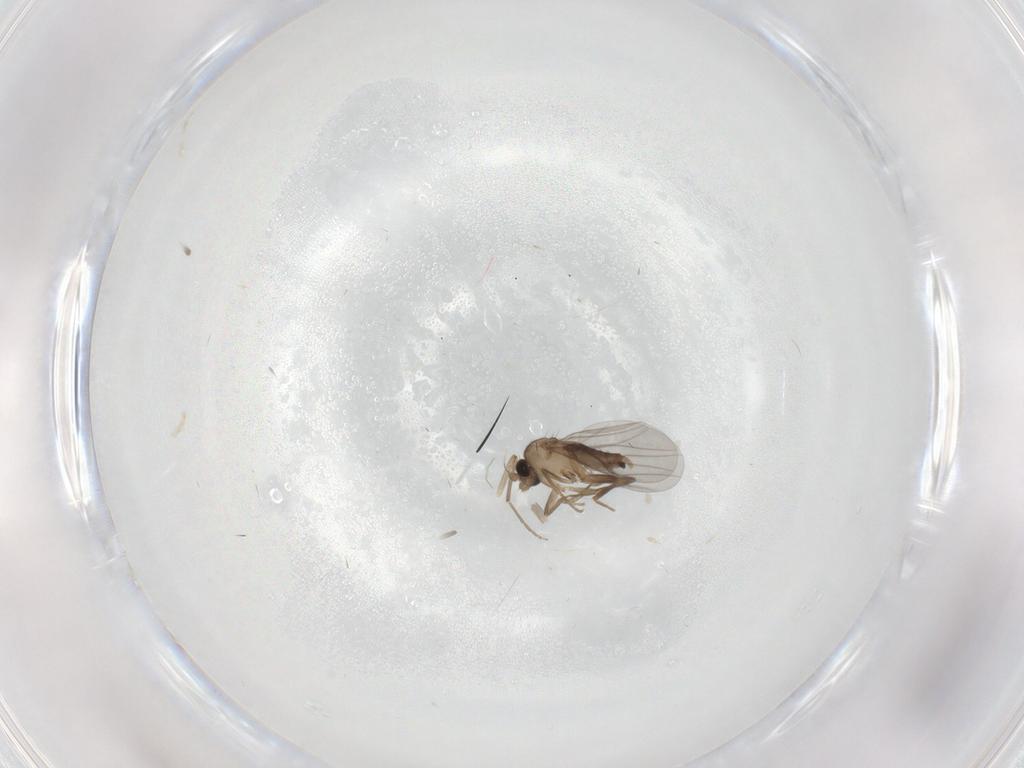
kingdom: Animalia
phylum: Arthropoda
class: Insecta
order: Diptera
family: Chironomidae
